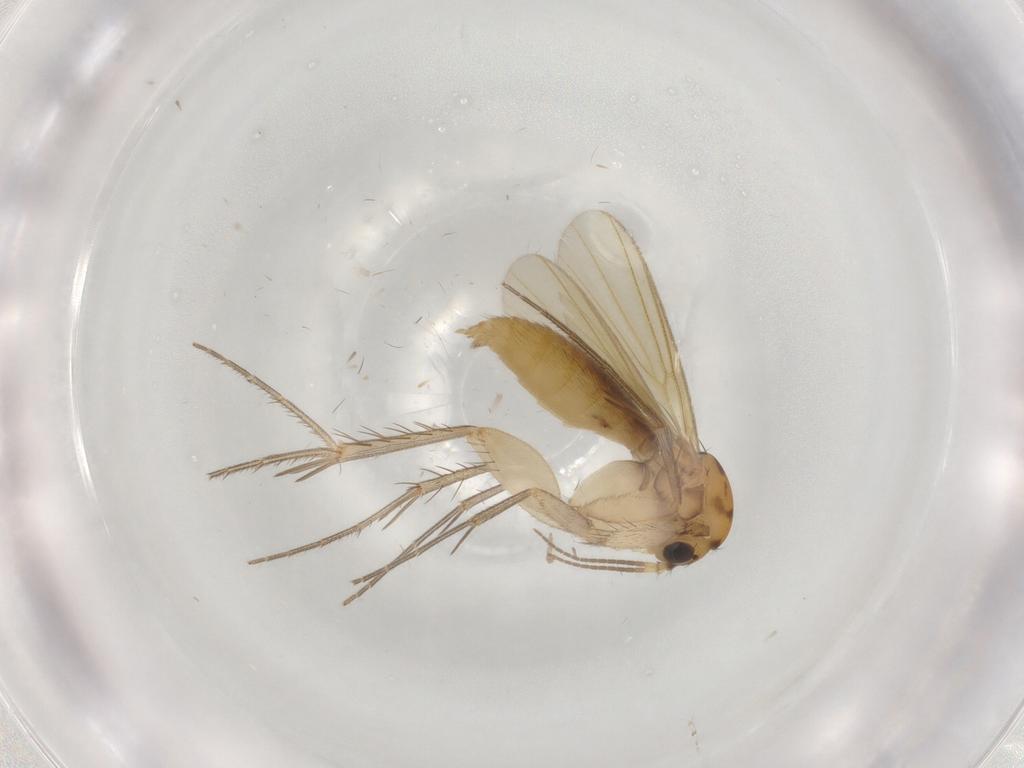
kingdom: Animalia
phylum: Arthropoda
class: Insecta
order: Diptera
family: Mycetophilidae
